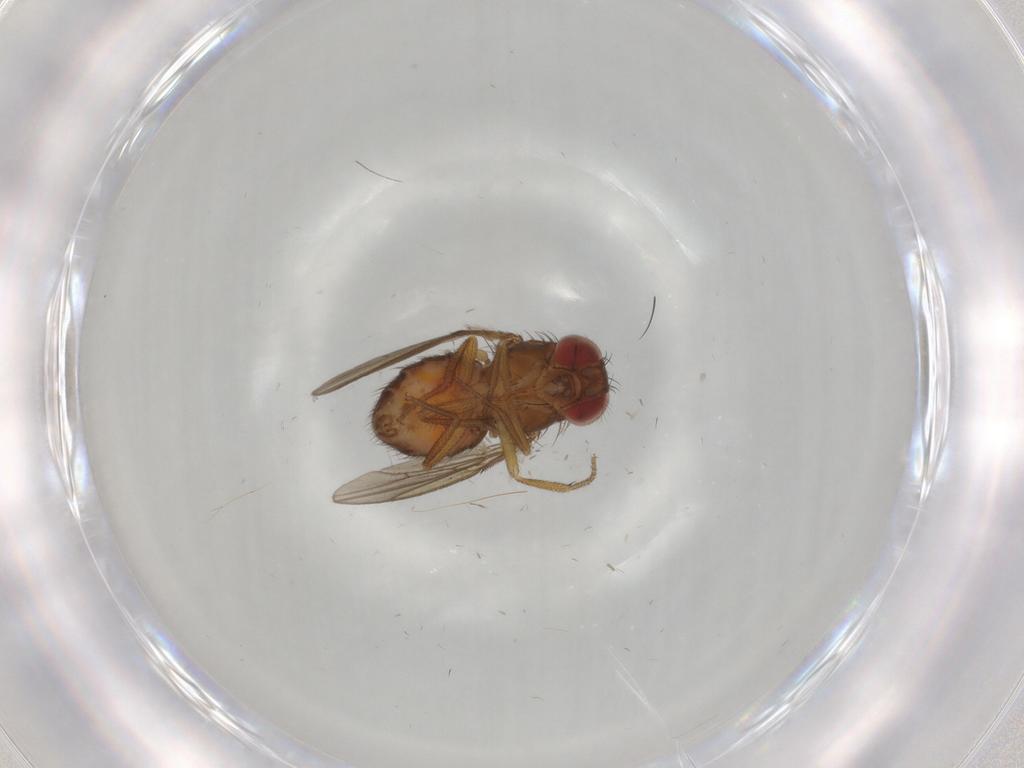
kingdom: Animalia
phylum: Arthropoda
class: Insecta
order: Diptera
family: Drosophilidae
